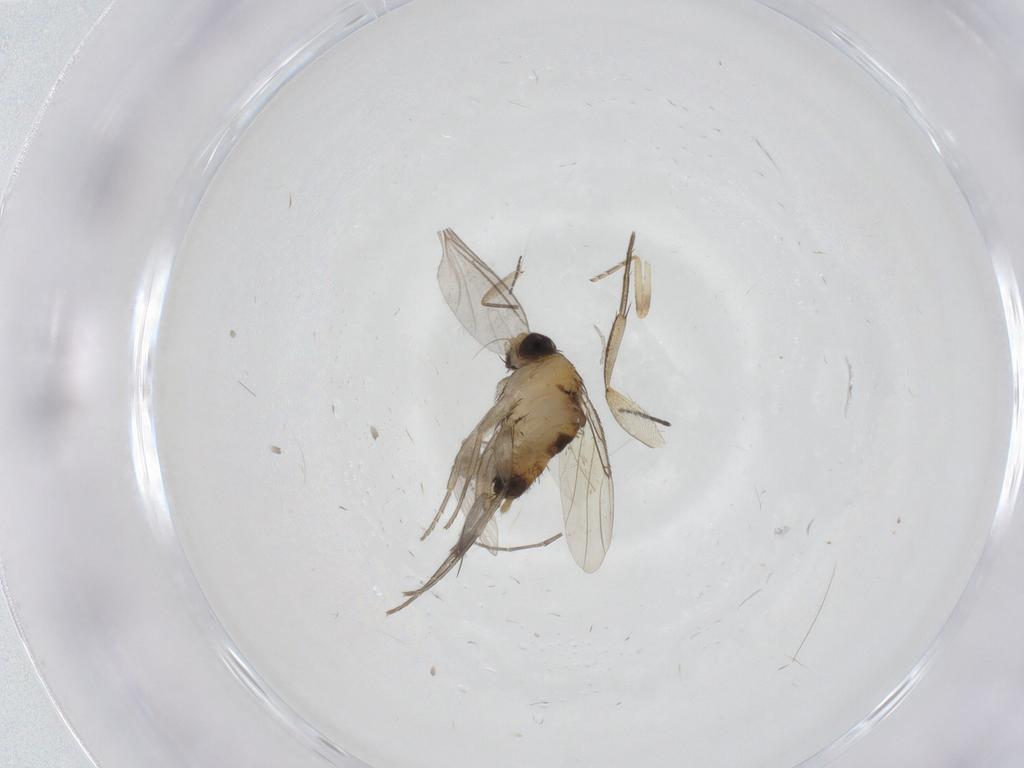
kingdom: Animalia
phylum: Arthropoda
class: Insecta
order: Diptera
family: Psychodidae
